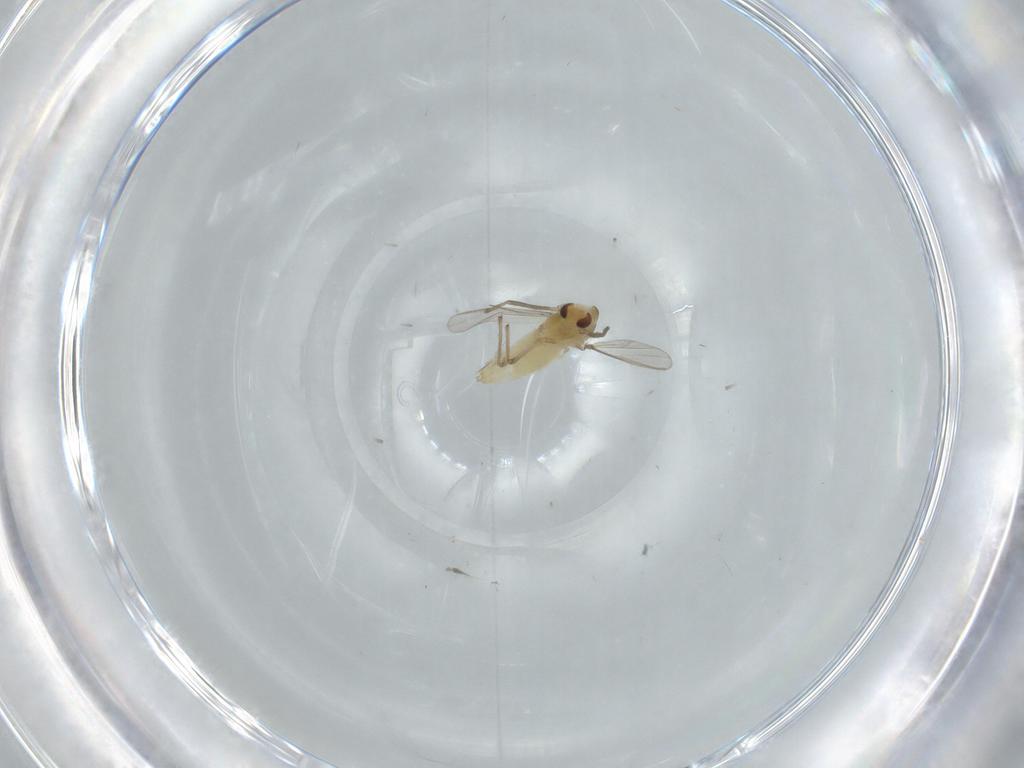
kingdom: Animalia
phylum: Arthropoda
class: Insecta
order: Diptera
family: Chironomidae
